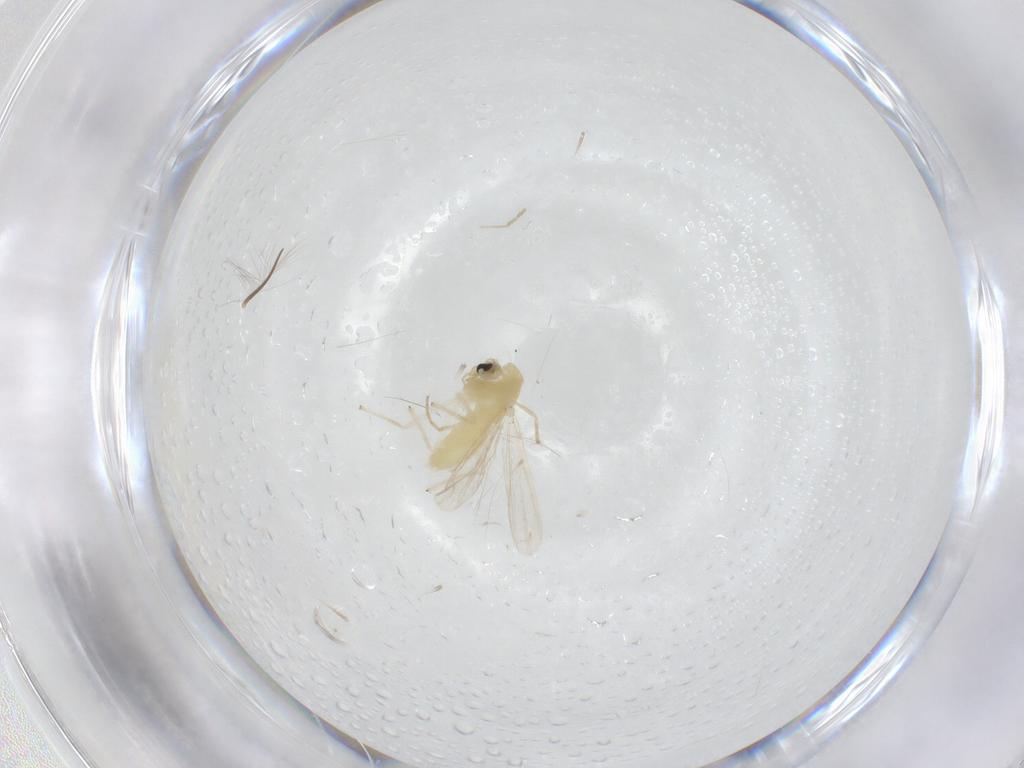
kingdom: Animalia
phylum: Arthropoda
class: Insecta
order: Diptera
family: Chironomidae
